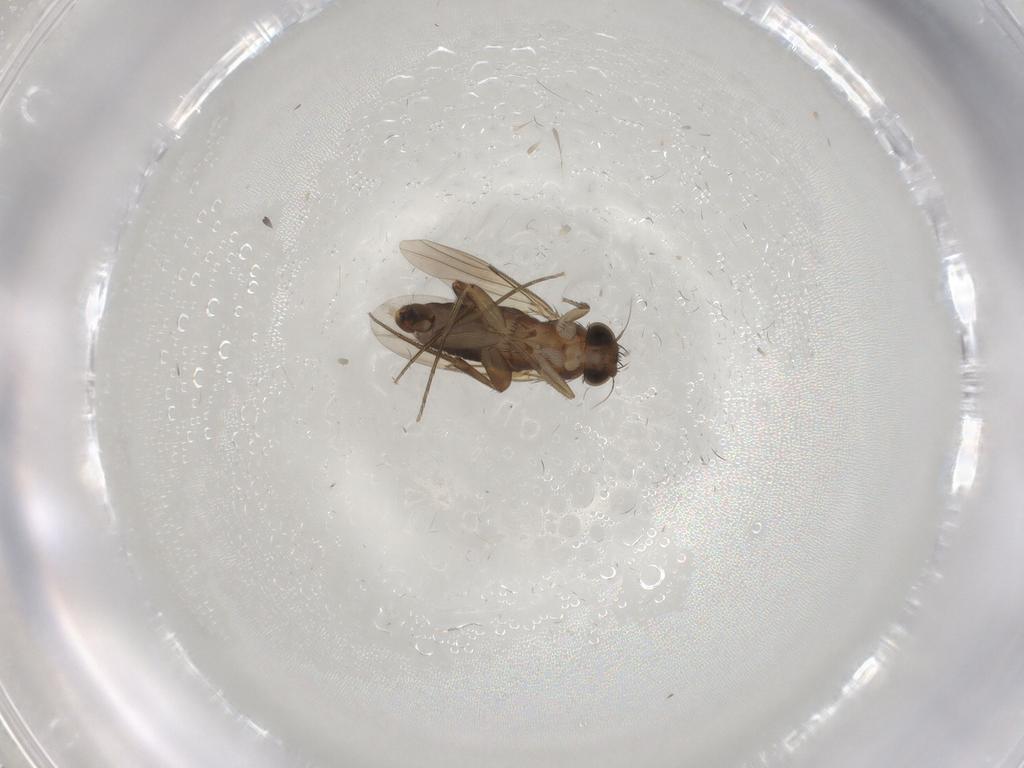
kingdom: Animalia
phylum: Arthropoda
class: Insecta
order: Diptera
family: Phoridae
